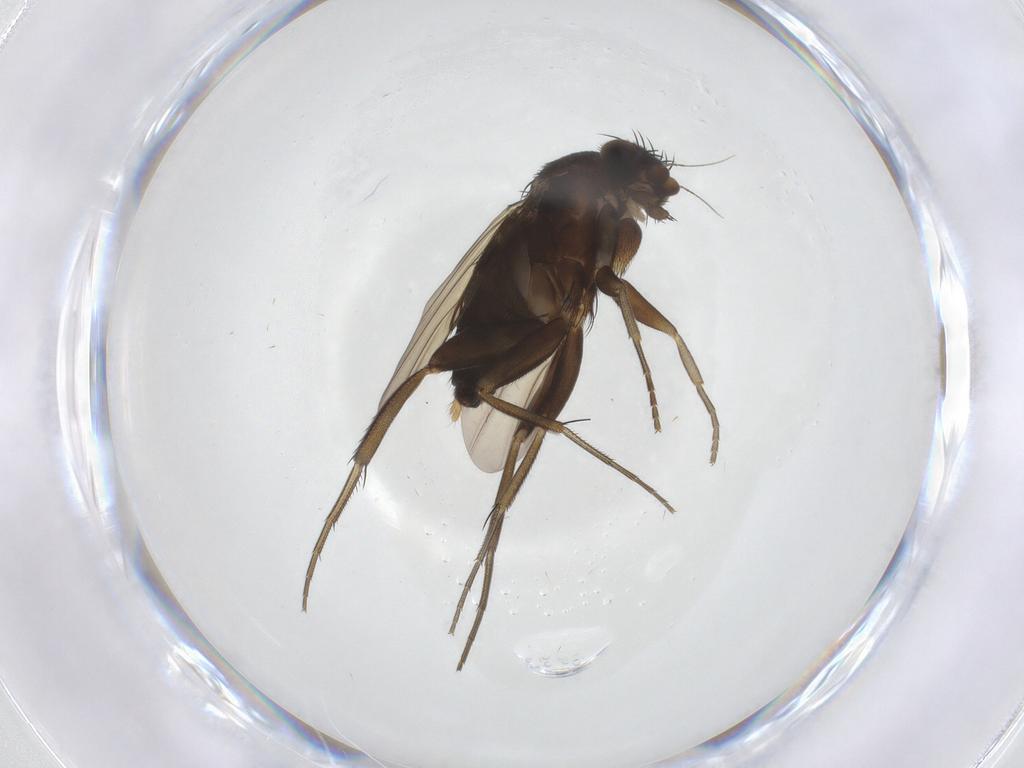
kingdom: Animalia
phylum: Arthropoda
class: Insecta
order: Diptera
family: Phoridae
